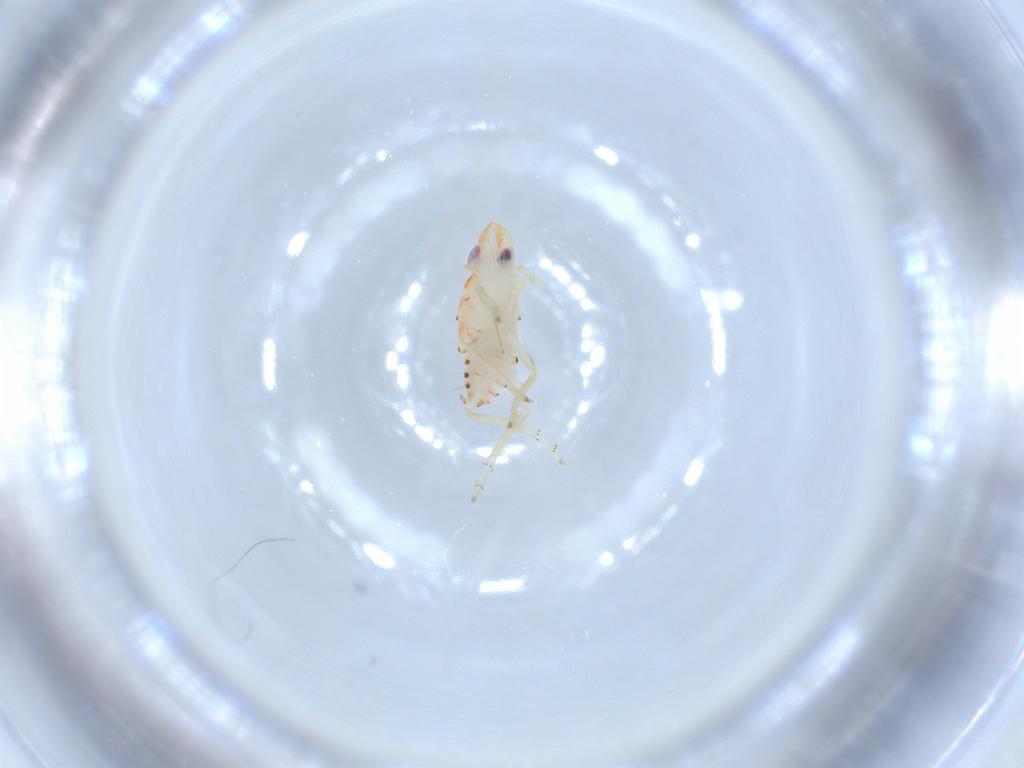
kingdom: Animalia
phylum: Arthropoda
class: Insecta
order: Hemiptera
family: Tropiduchidae
